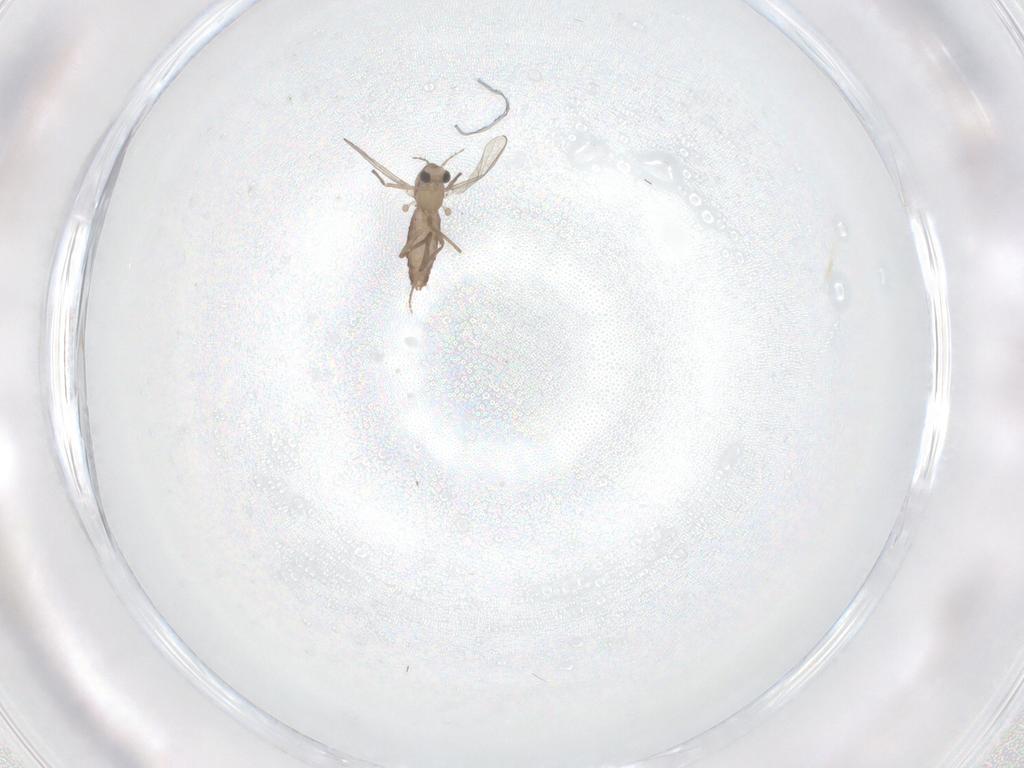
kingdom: Animalia
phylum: Arthropoda
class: Insecta
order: Diptera
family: Chironomidae
